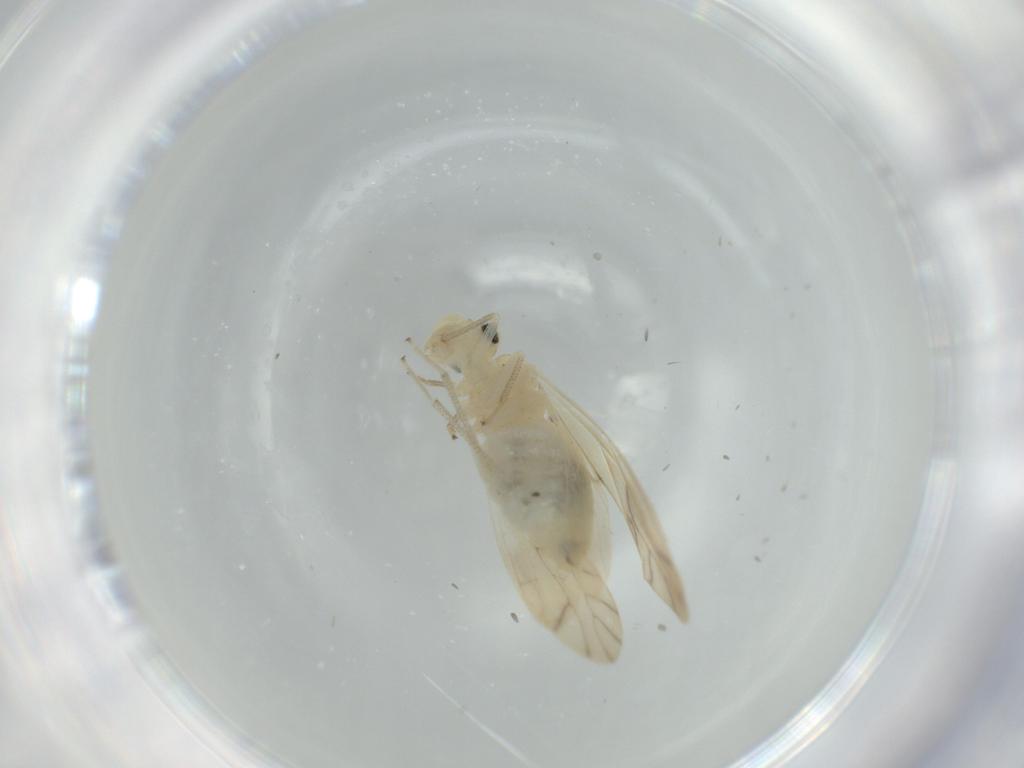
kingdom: Animalia
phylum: Arthropoda
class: Insecta
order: Psocodea
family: Caeciliusidae
